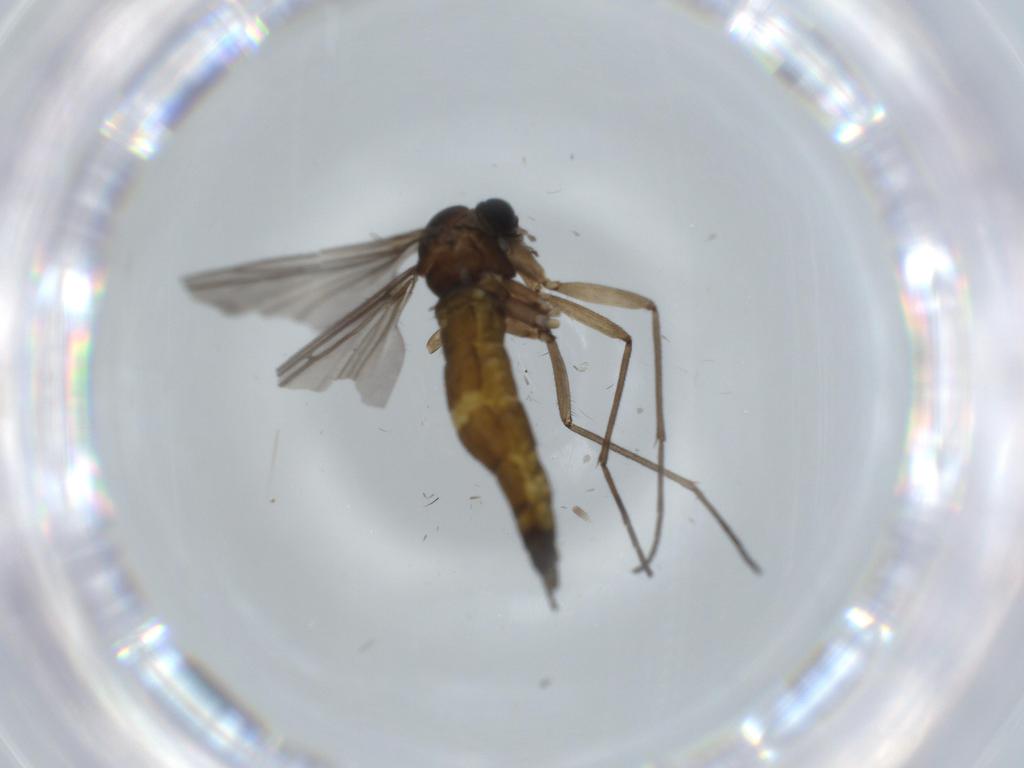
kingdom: Animalia
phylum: Arthropoda
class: Insecta
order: Diptera
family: Sciaridae
